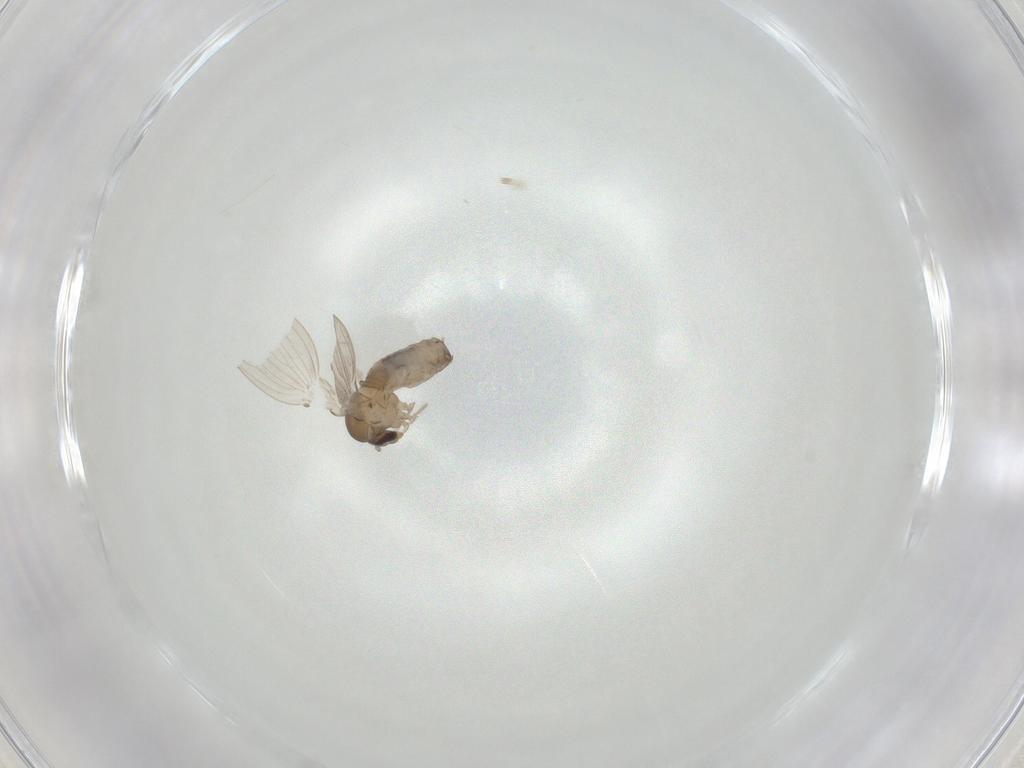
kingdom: Animalia
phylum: Arthropoda
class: Insecta
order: Diptera
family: Psychodidae
